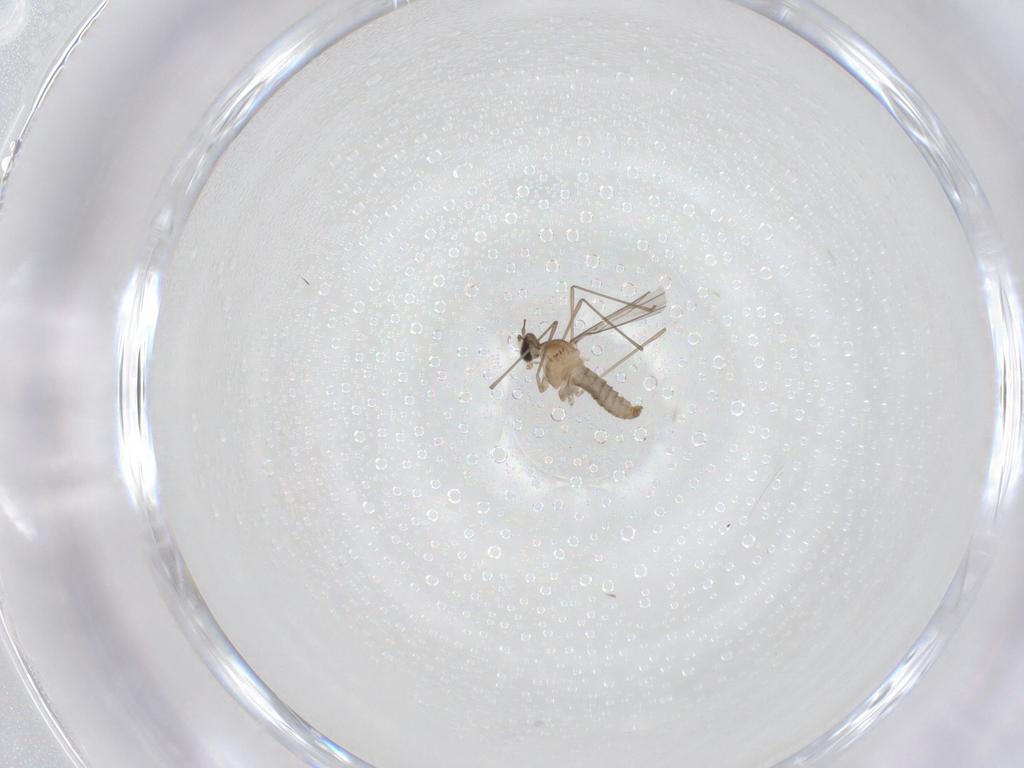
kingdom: Animalia
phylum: Arthropoda
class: Insecta
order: Diptera
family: Cecidomyiidae
